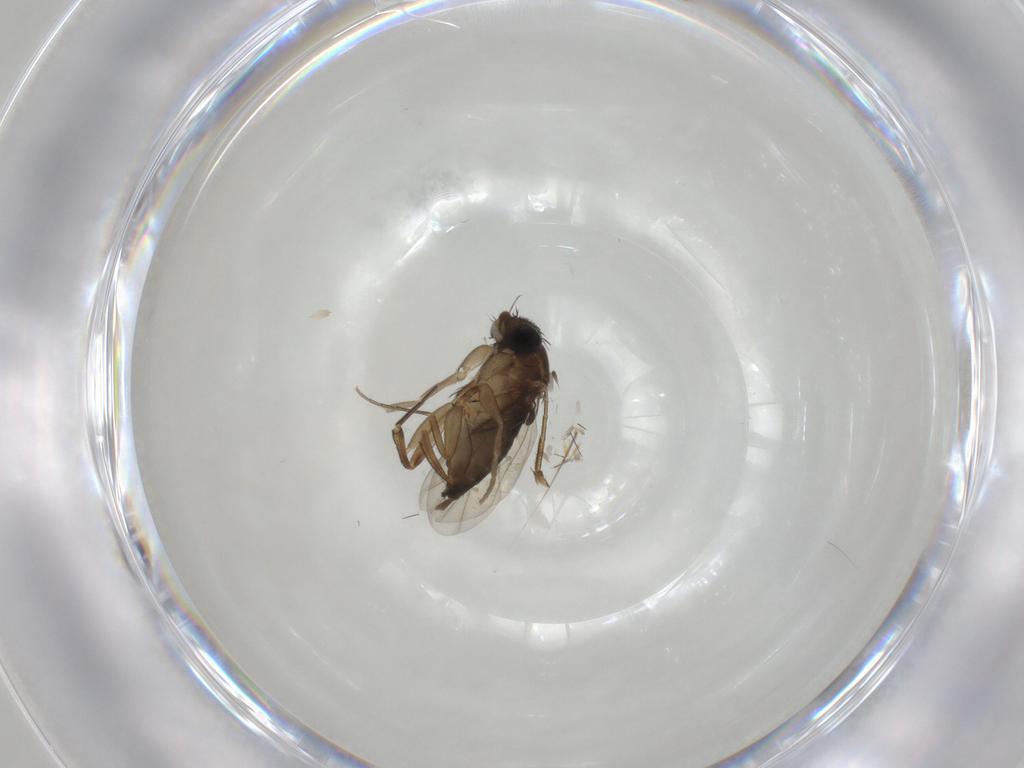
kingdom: Animalia
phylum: Arthropoda
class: Insecta
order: Diptera
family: Cecidomyiidae
